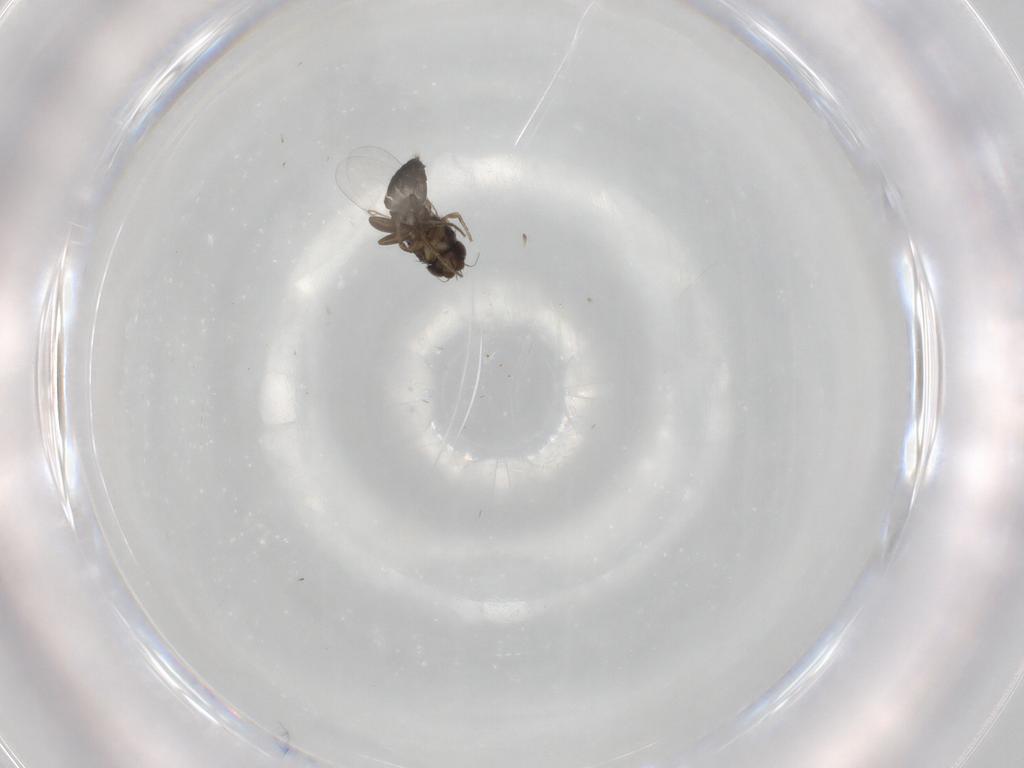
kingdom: Animalia
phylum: Arthropoda
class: Insecta
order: Diptera
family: Phoridae
